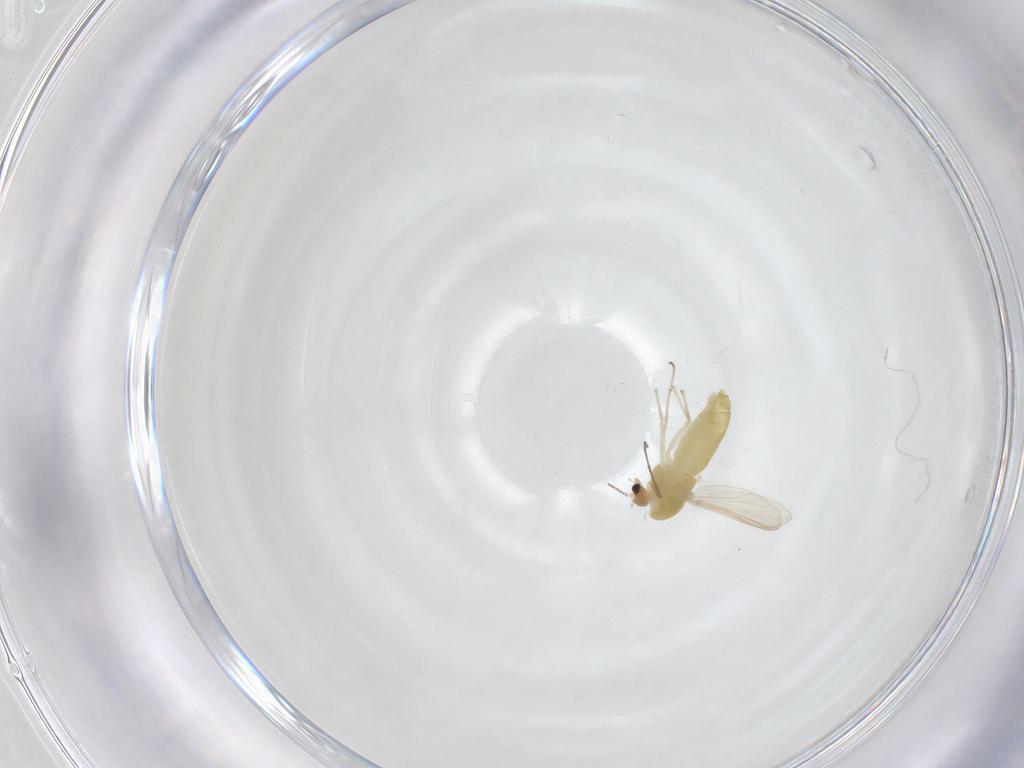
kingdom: Animalia
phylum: Arthropoda
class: Insecta
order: Diptera
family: Chironomidae
